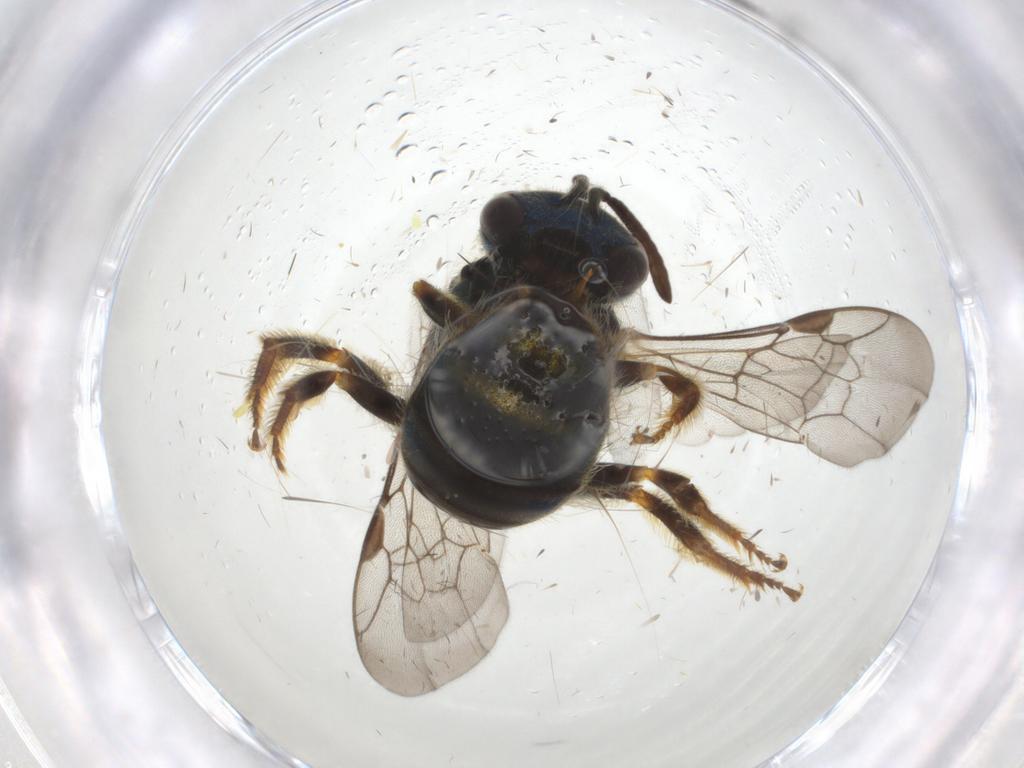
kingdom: Animalia
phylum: Arthropoda
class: Insecta
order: Hymenoptera
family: Halictidae
